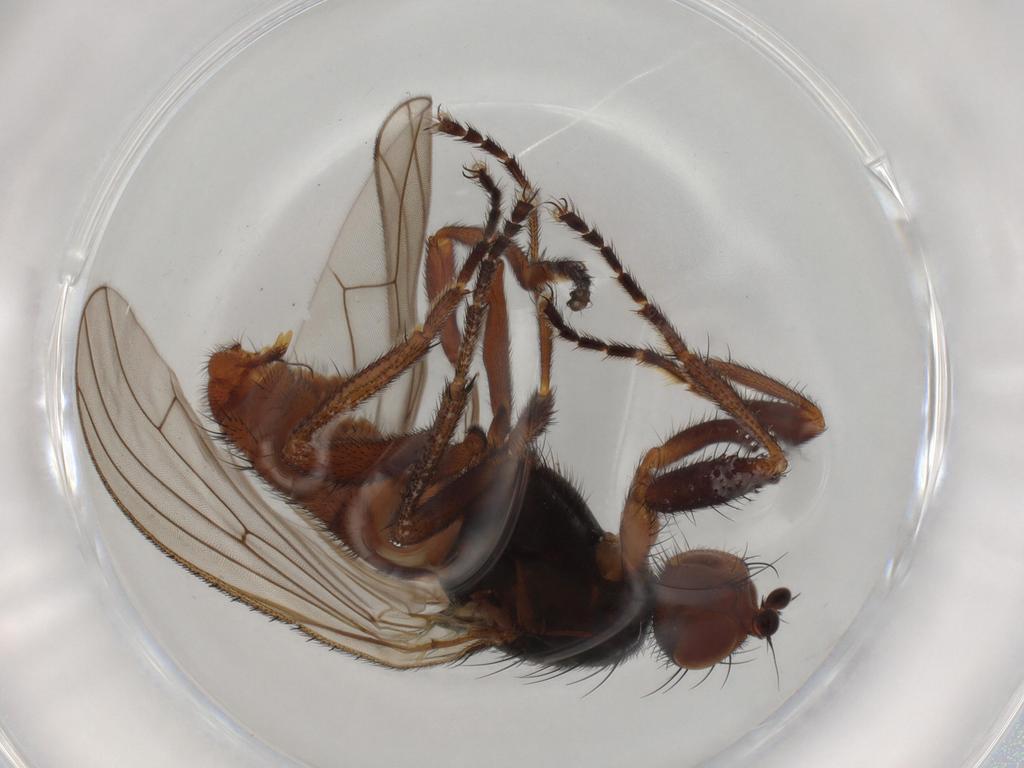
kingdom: Animalia
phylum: Arthropoda
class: Insecta
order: Diptera
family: Heleomyzidae
